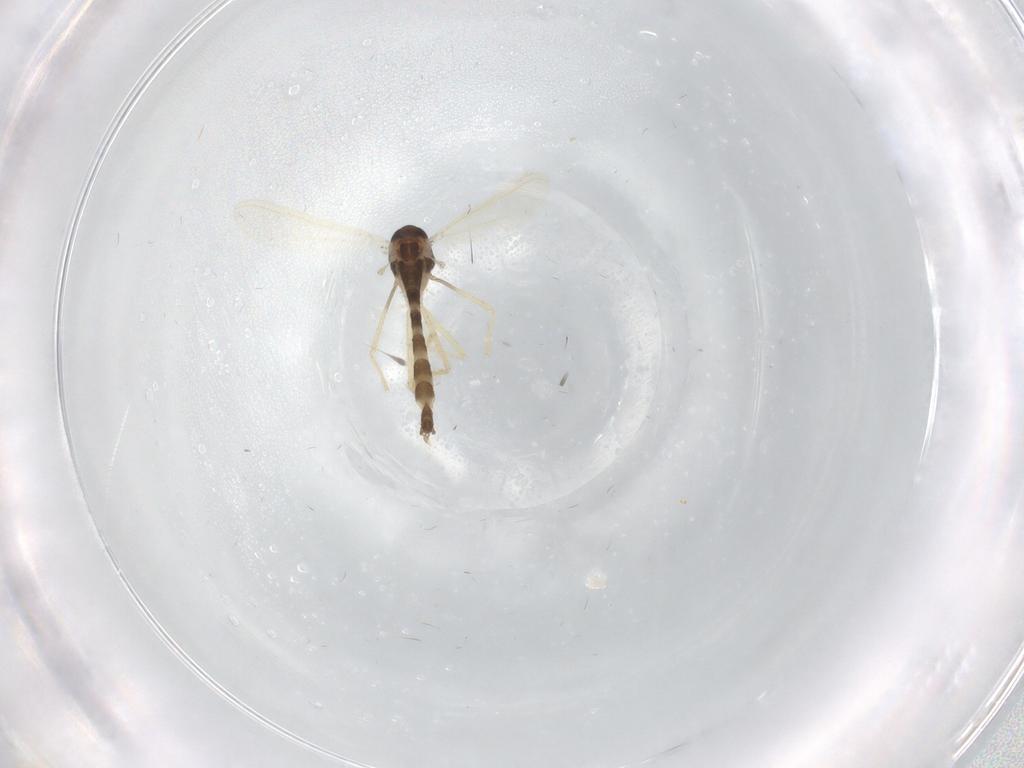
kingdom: Animalia
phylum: Arthropoda
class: Insecta
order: Diptera
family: Chironomidae
